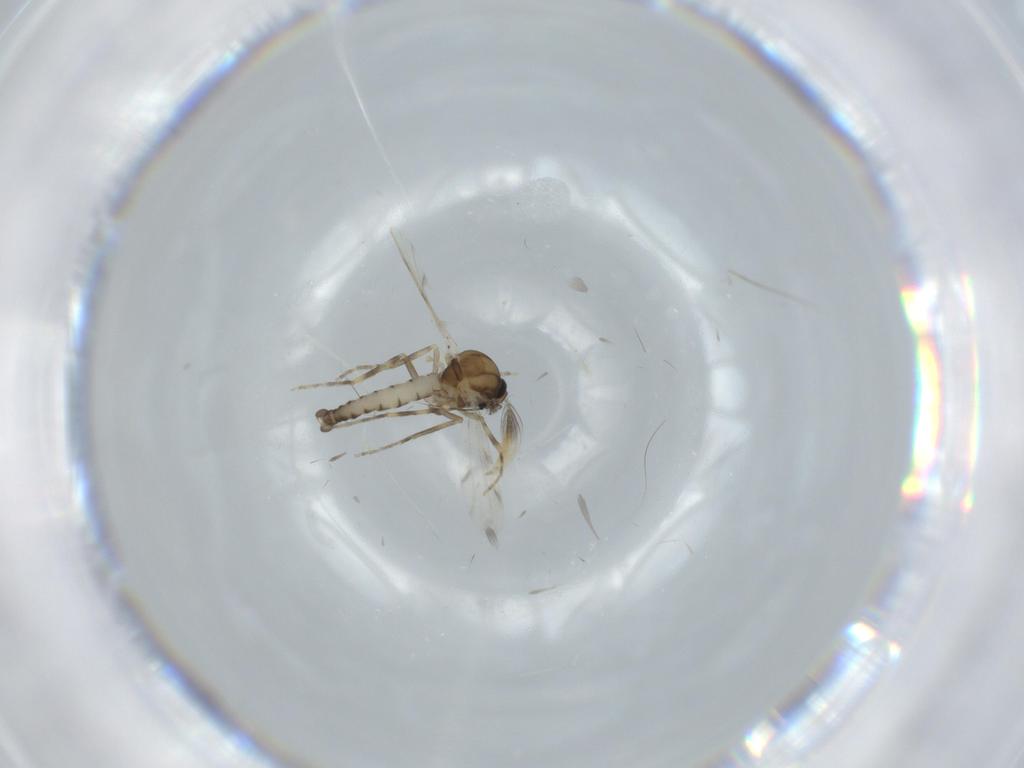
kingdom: Animalia
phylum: Arthropoda
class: Insecta
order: Diptera
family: Ceratopogonidae
